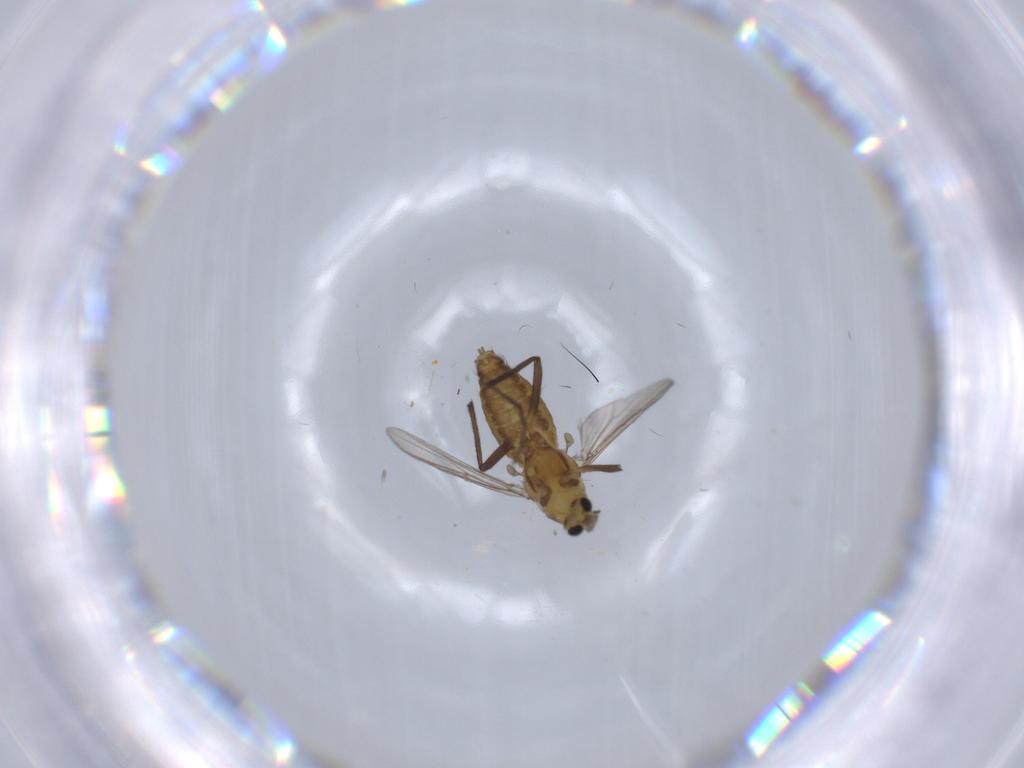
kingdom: Animalia
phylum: Arthropoda
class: Insecta
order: Diptera
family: Chironomidae
